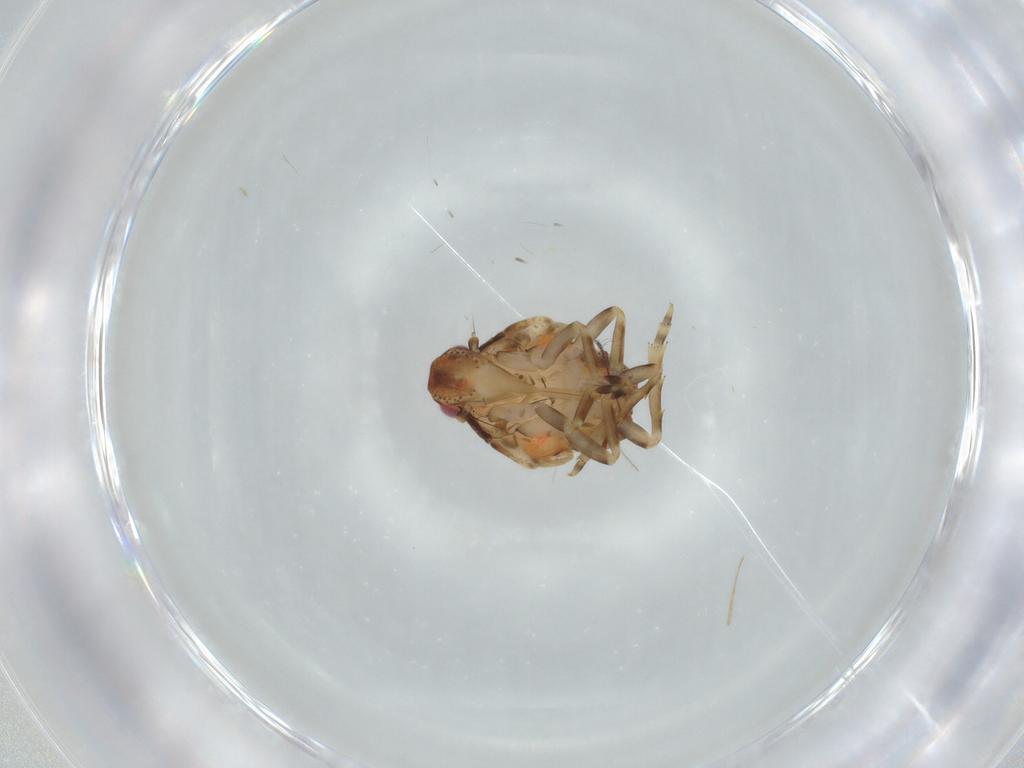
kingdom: Animalia
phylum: Arthropoda
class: Insecta
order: Hemiptera
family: Flatidae
